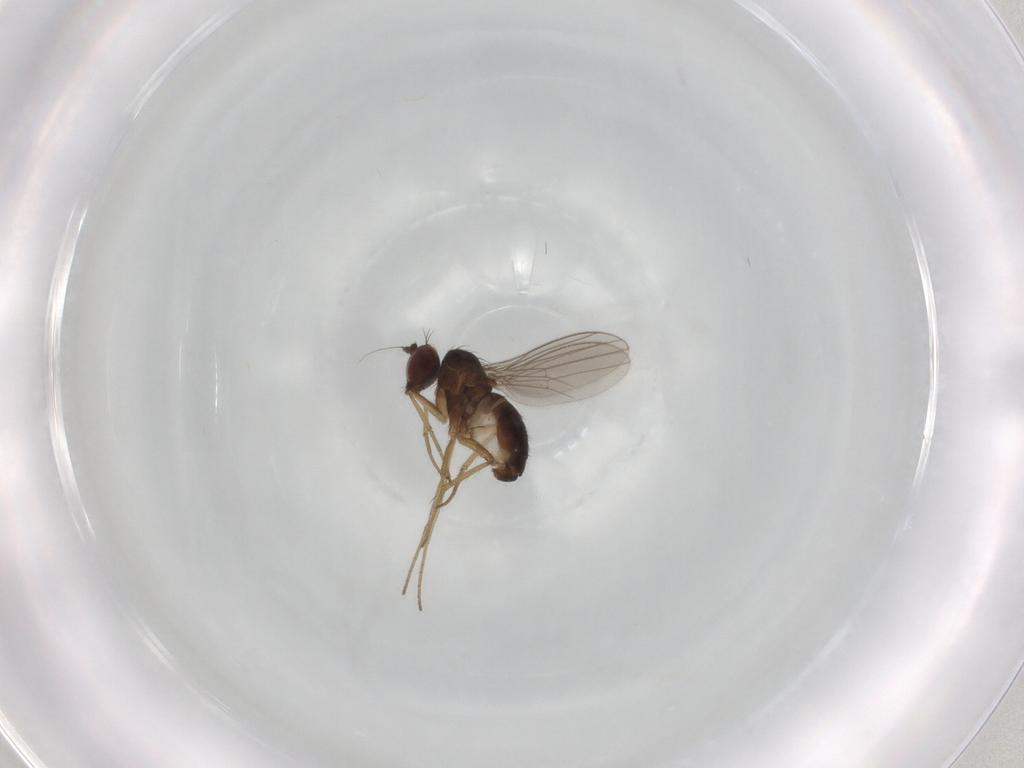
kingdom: Animalia
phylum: Arthropoda
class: Insecta
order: Diptera
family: Dolichopodidae
